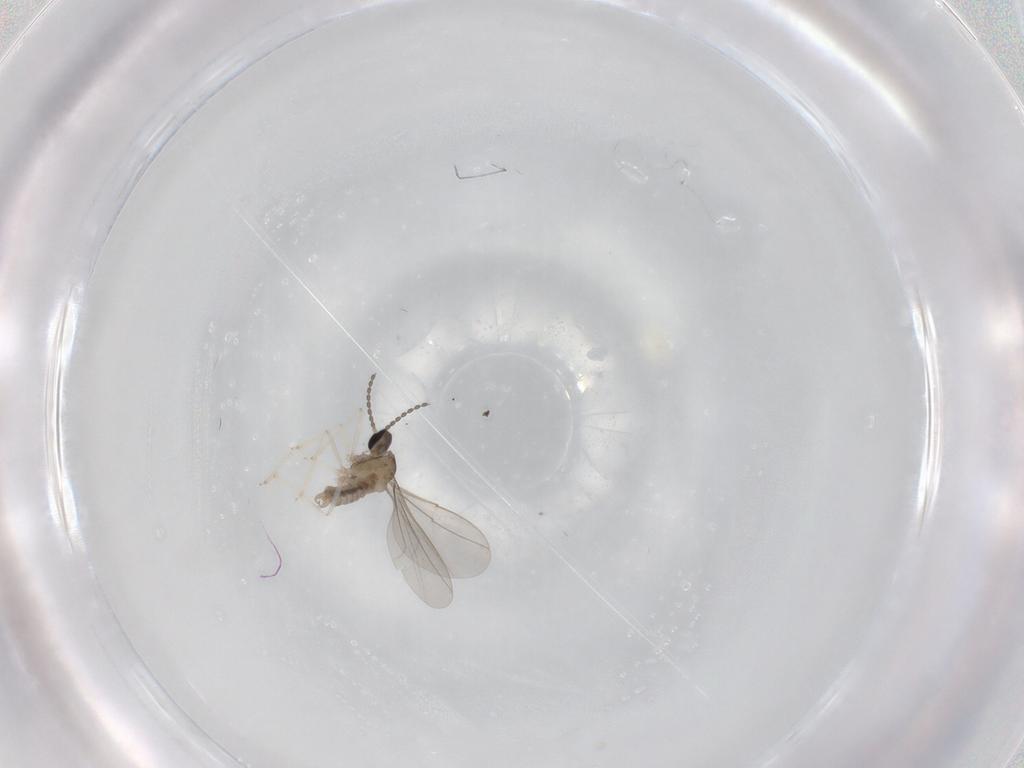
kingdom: Animalia
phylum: Arthropoda
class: Insecta
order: Diptera
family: Cecidomyiidae
